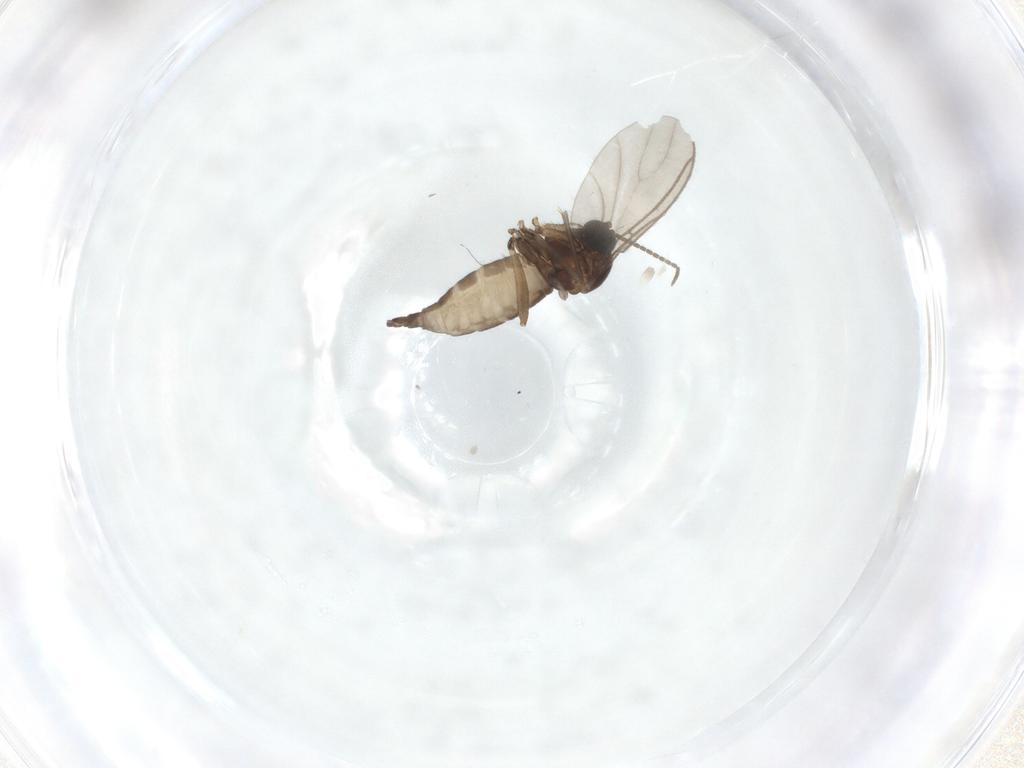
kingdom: Animalia
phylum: Arthropoda
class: Insecta
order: Diptera
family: Sciaridae
